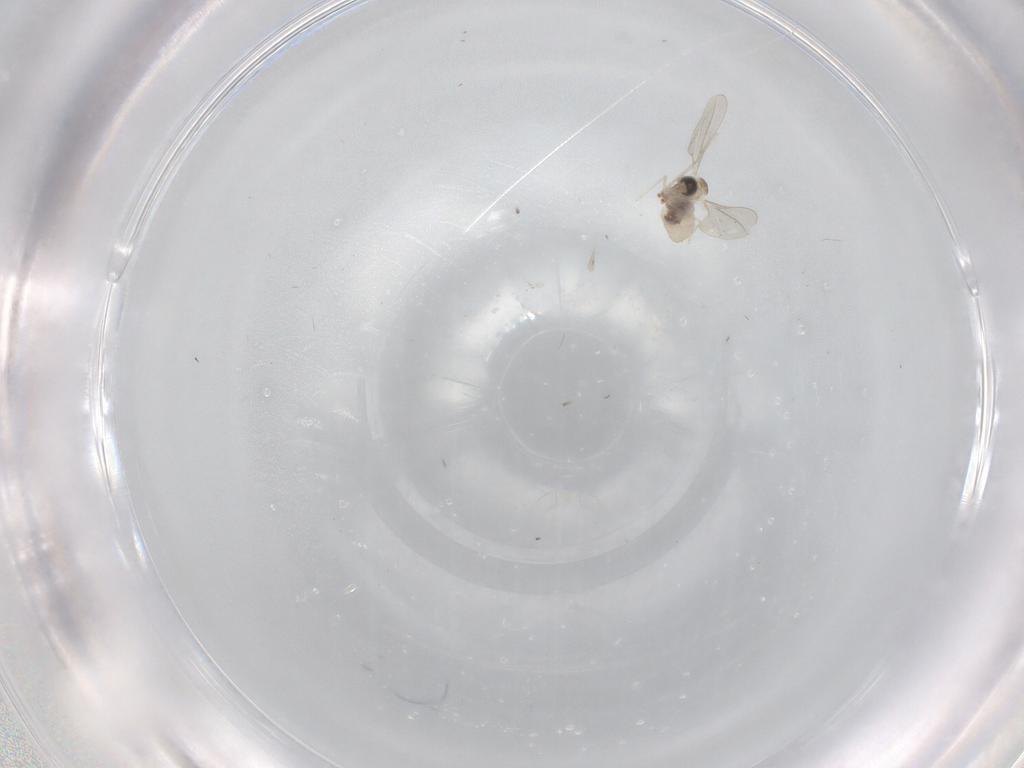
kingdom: Animalia
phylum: Arthropoda
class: Insecta
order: Diptera
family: Cecidomyiidae
